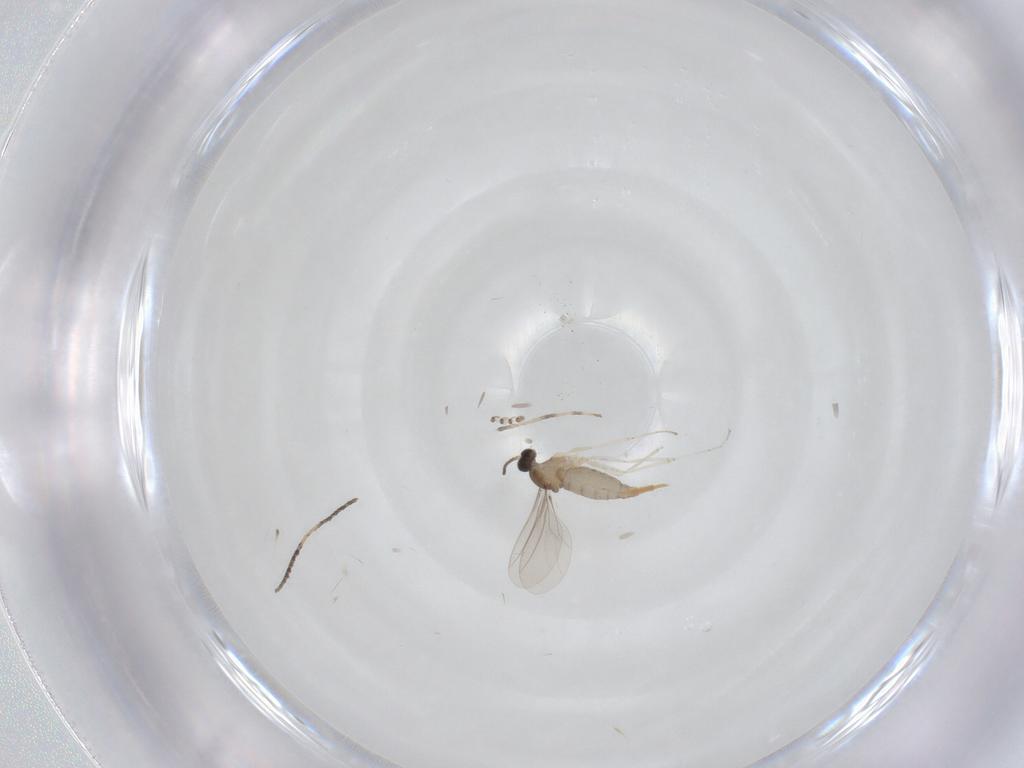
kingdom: Animalia
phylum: Arthropoda
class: Insecta
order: Diptera
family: Cecidomyiidae
